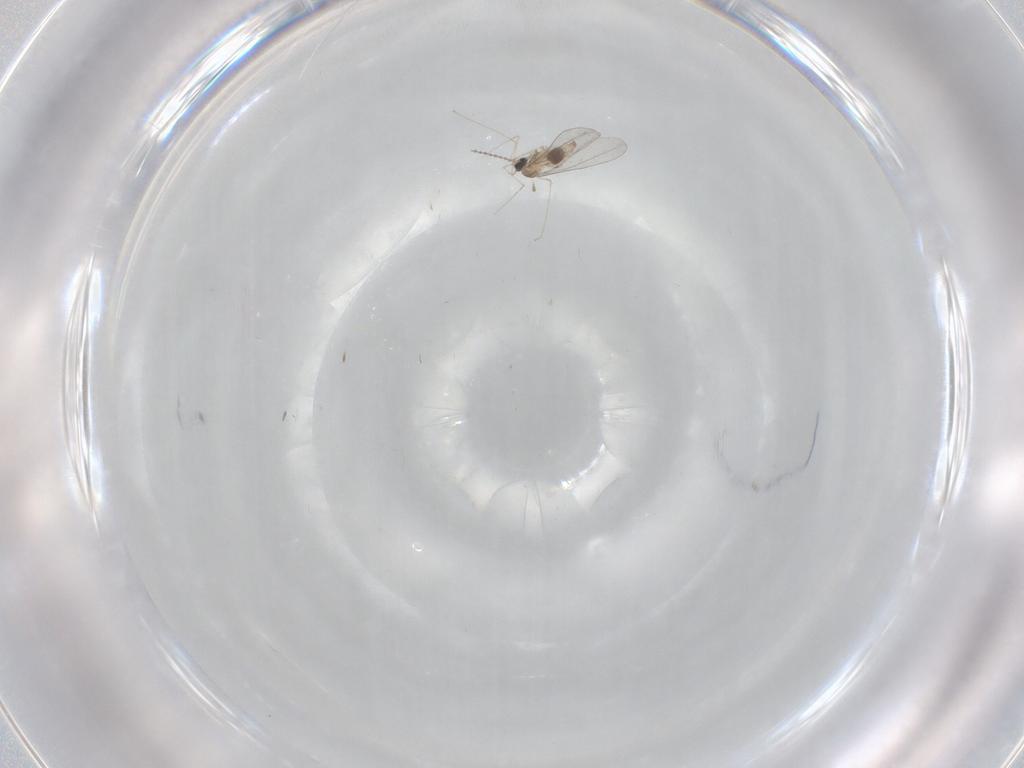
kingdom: Animalia
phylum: Arthropoda
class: Insecta
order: Diptera
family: Cecidomyiidae
